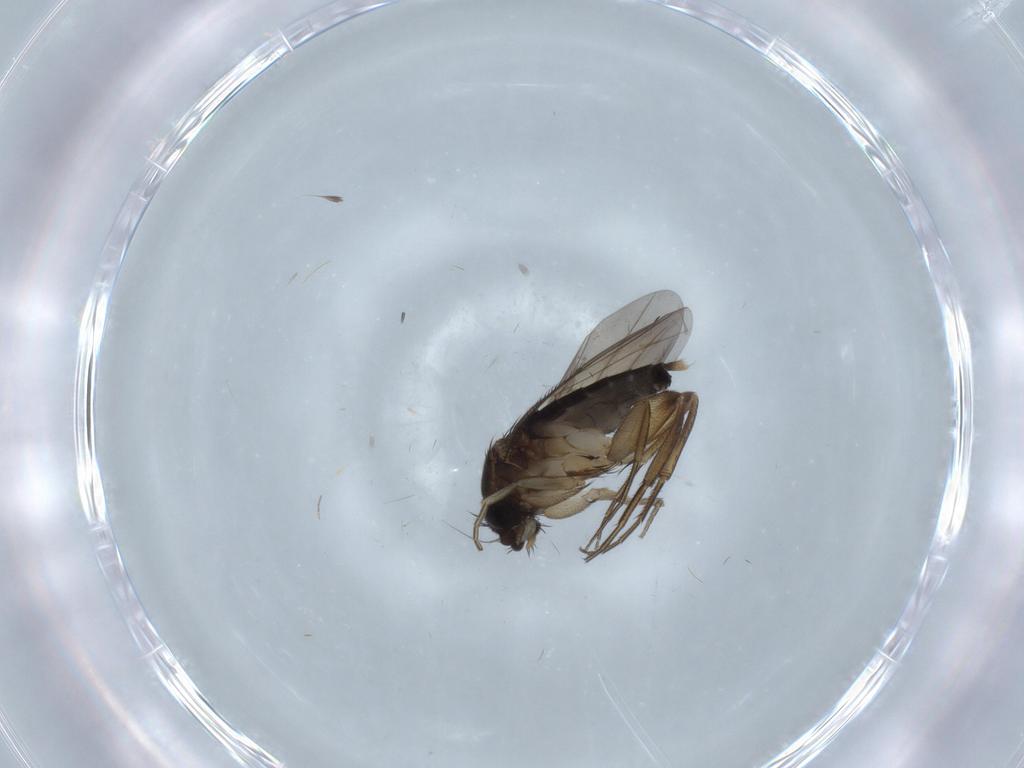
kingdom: Animalia
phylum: Arthropoda
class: Insecta
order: Diptera
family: Phoridae
